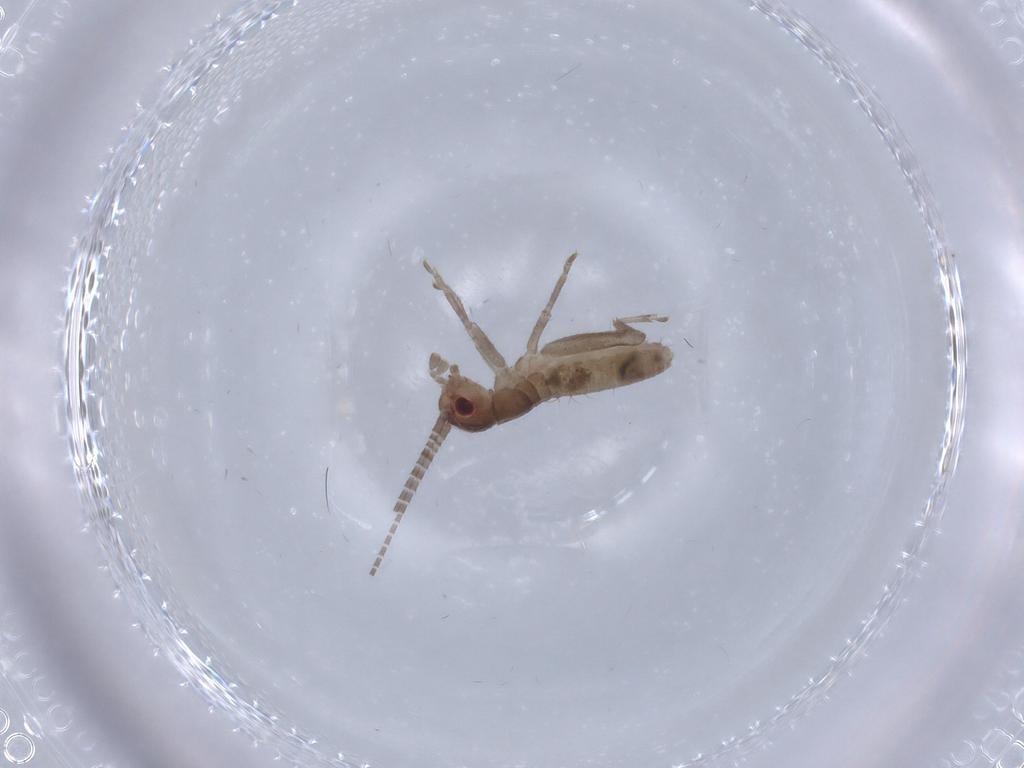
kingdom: Animalia
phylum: Arthropoda
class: Insecta
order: Orthoptera
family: Mogoplistidae
